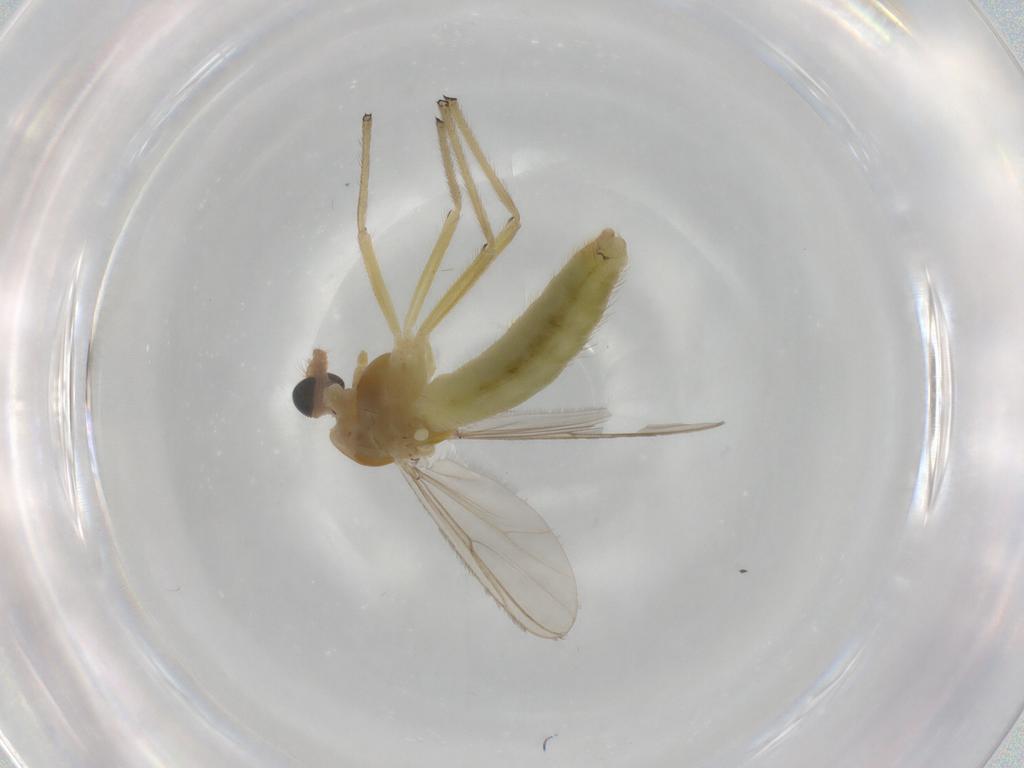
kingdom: Animalia
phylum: Arthropoda
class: Insecta
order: Diptera
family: Chironomidae
